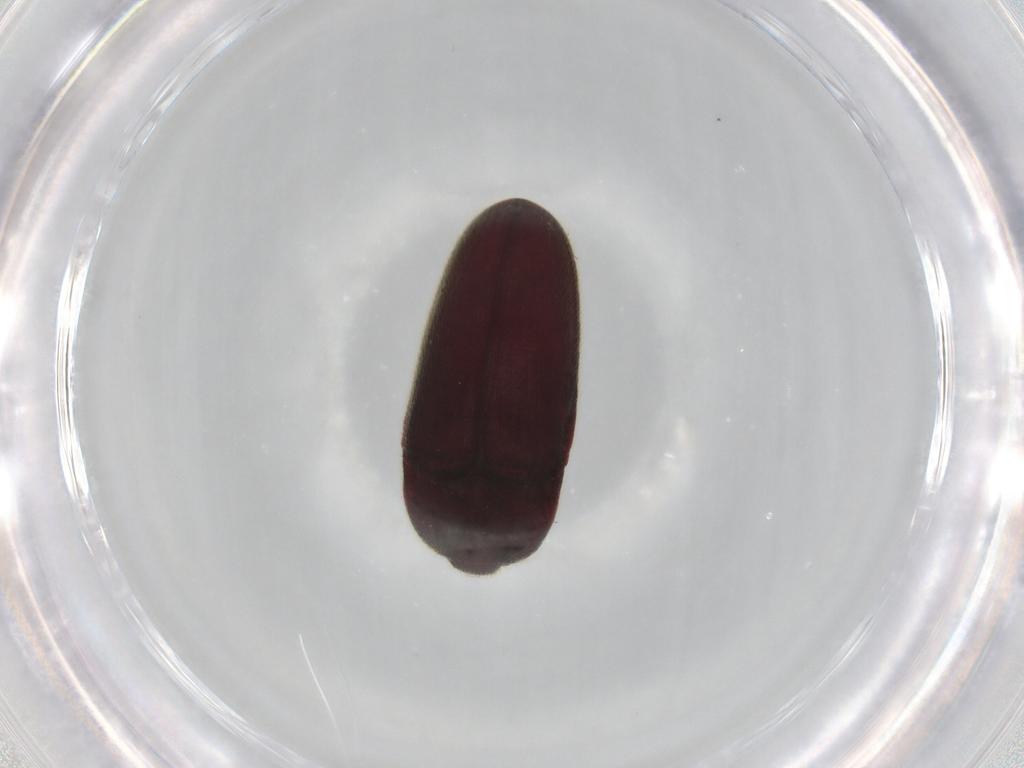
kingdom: Animalia
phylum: Arthropoda
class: Insecta
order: Coleoptera
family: Throscidae
